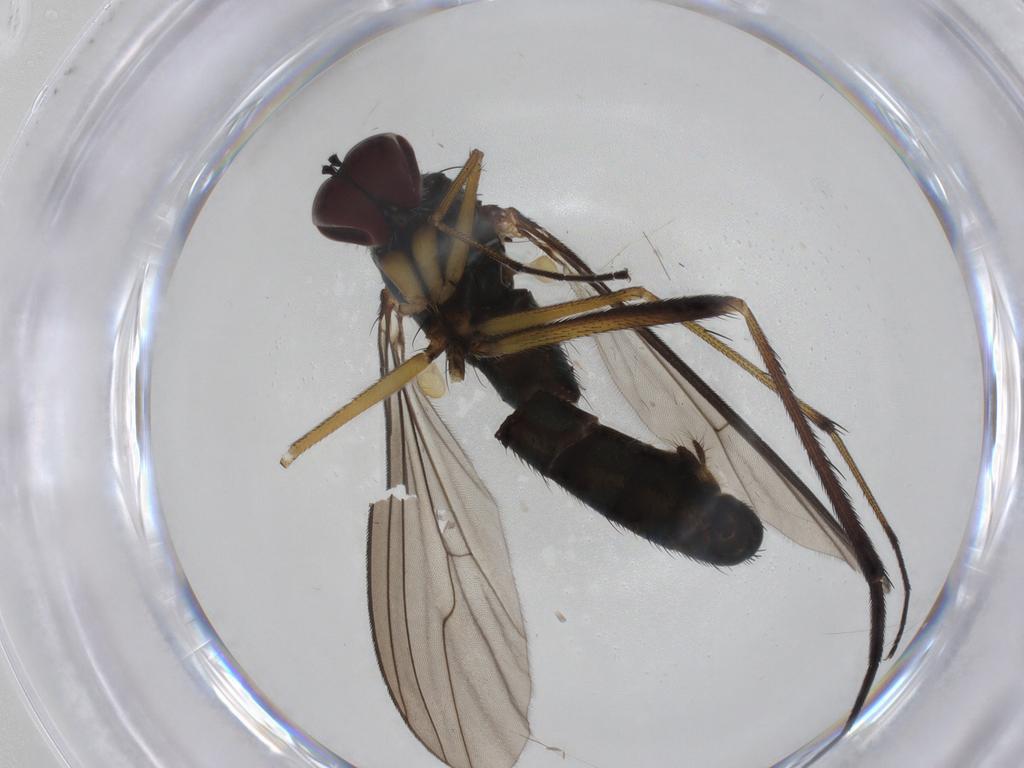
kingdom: Animalia
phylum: Arthropoda
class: Insecta
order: Diptera
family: Dolichopodidae
